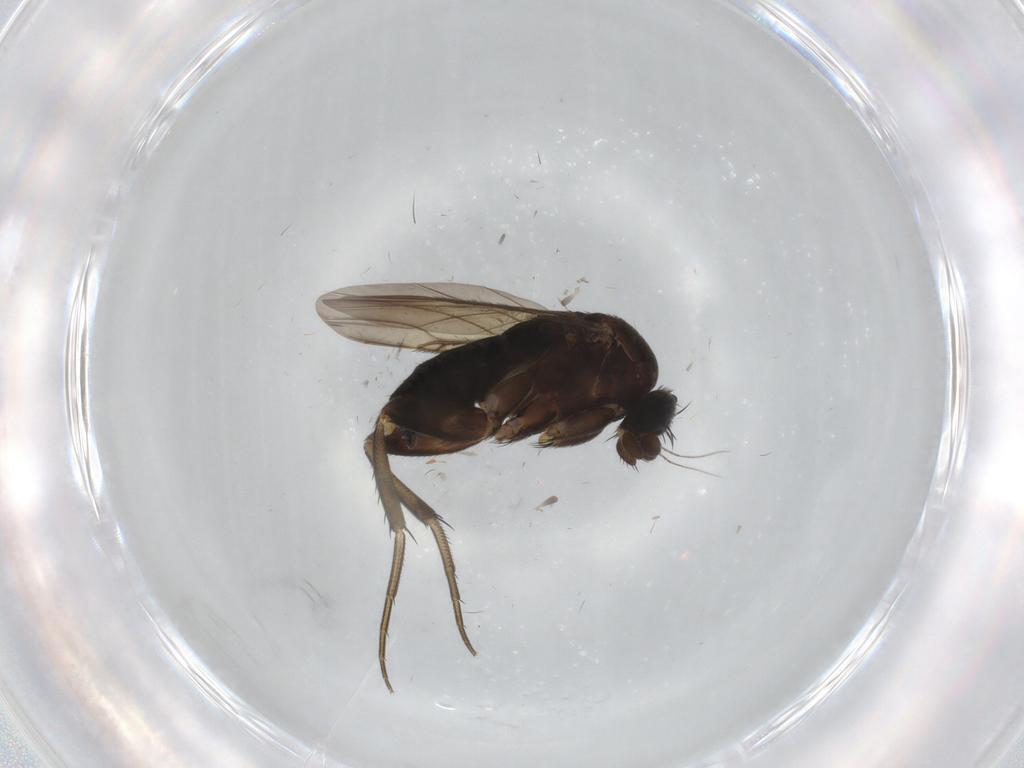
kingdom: Animalia
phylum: Arthropoda
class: Insecta
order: Diptera
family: Phoridae
